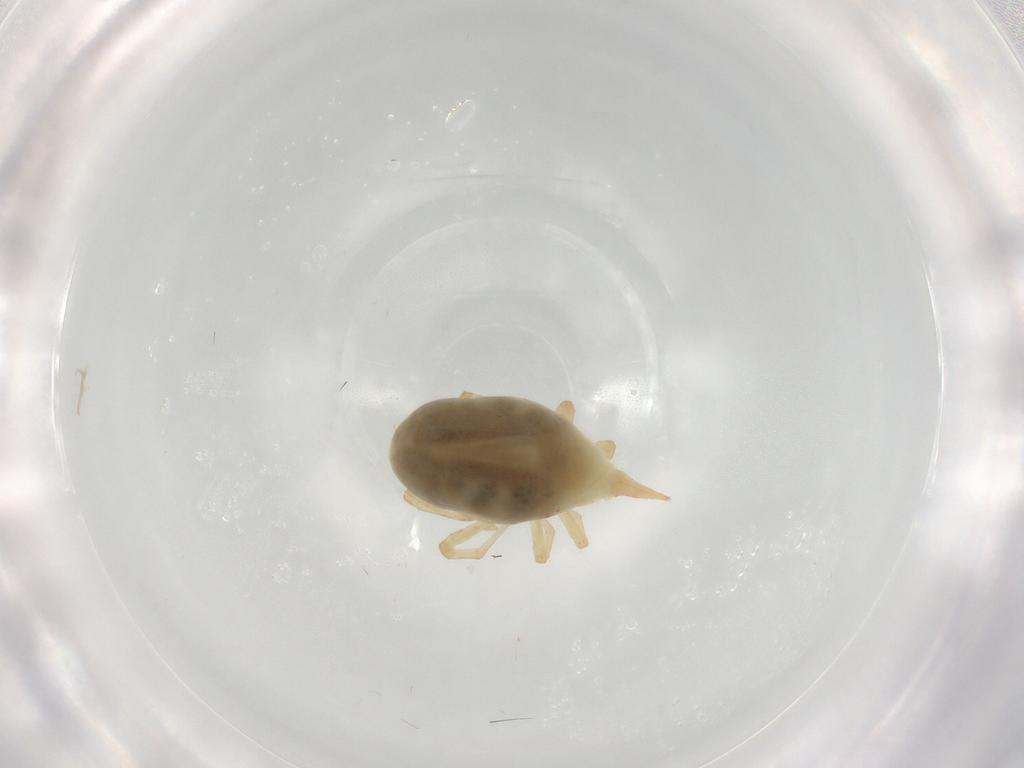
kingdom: Animalia
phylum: Arthropoda
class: Arachnida
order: Trombidiformes
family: Bdellidae
